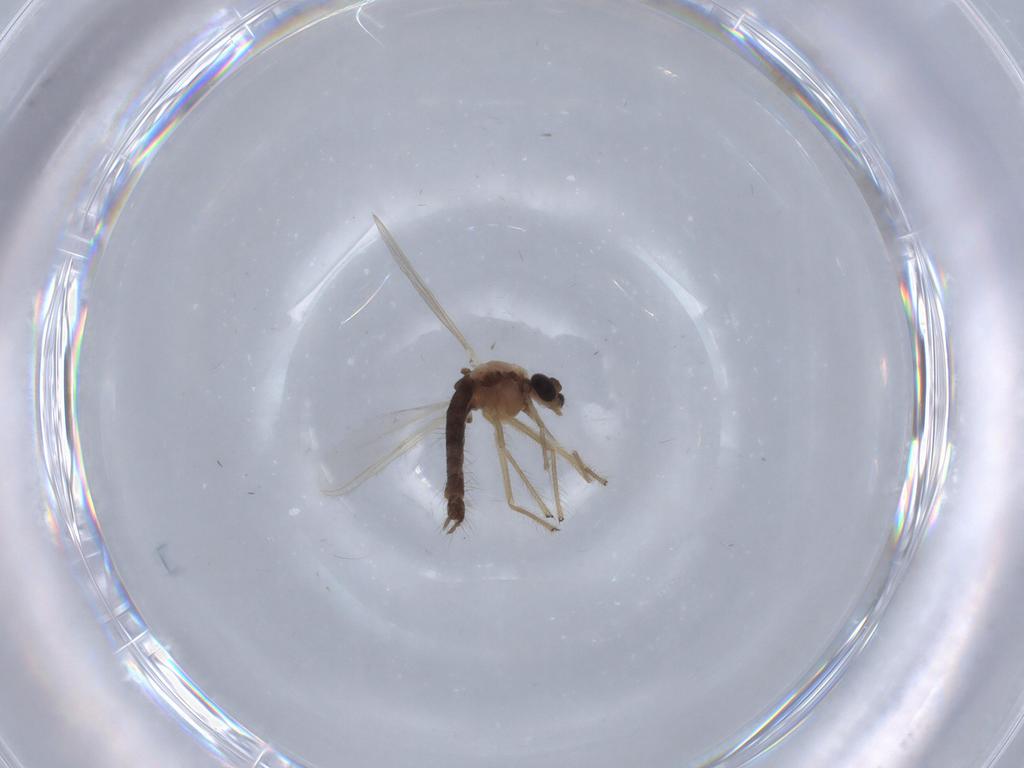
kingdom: Animalia
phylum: Arthropoda
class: Insecta
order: Diptera
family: Chironomidae
